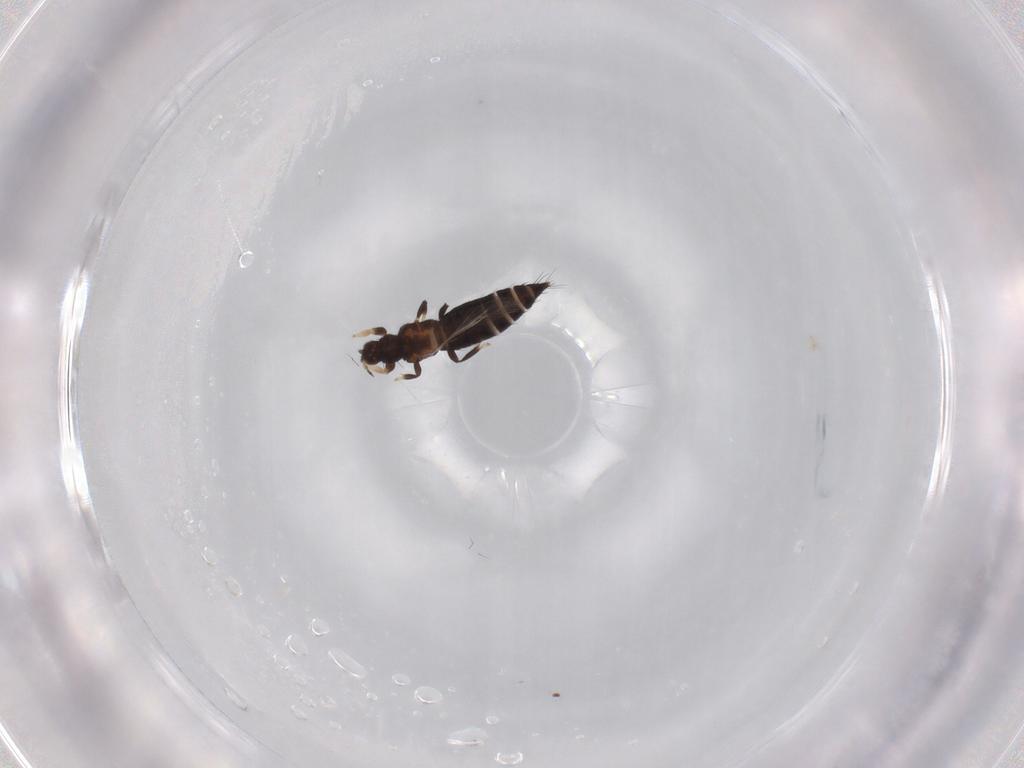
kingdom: Animalia
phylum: Arthropoda
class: Insecta
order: Thysanoptera
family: Thripidae
